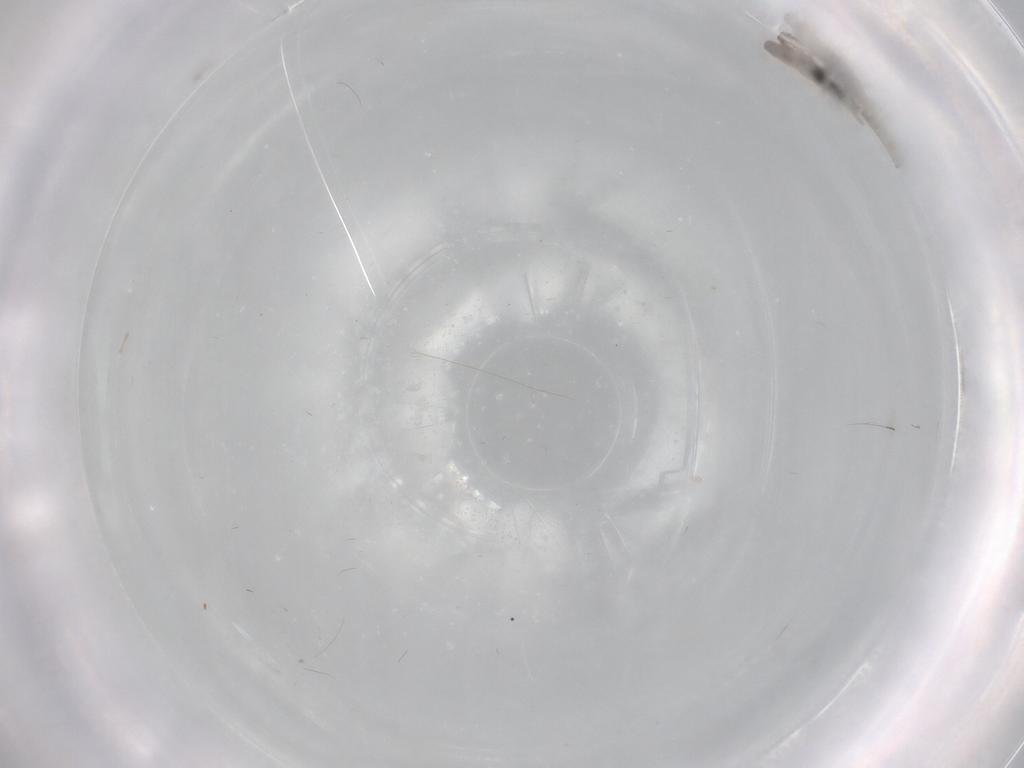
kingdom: Animalia
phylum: Arthropoda
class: Insecta
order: Diptera
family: Cecidomyiidae
